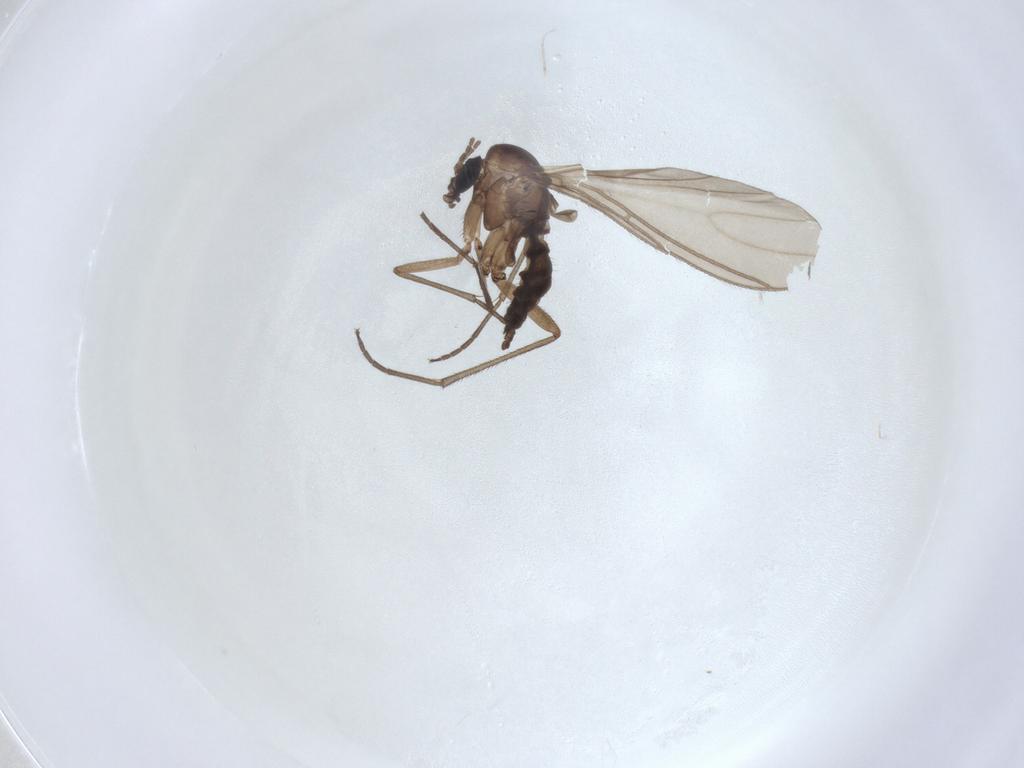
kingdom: Animalia
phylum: Arthropoda
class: Insecta
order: Diptera
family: Sciaridae
